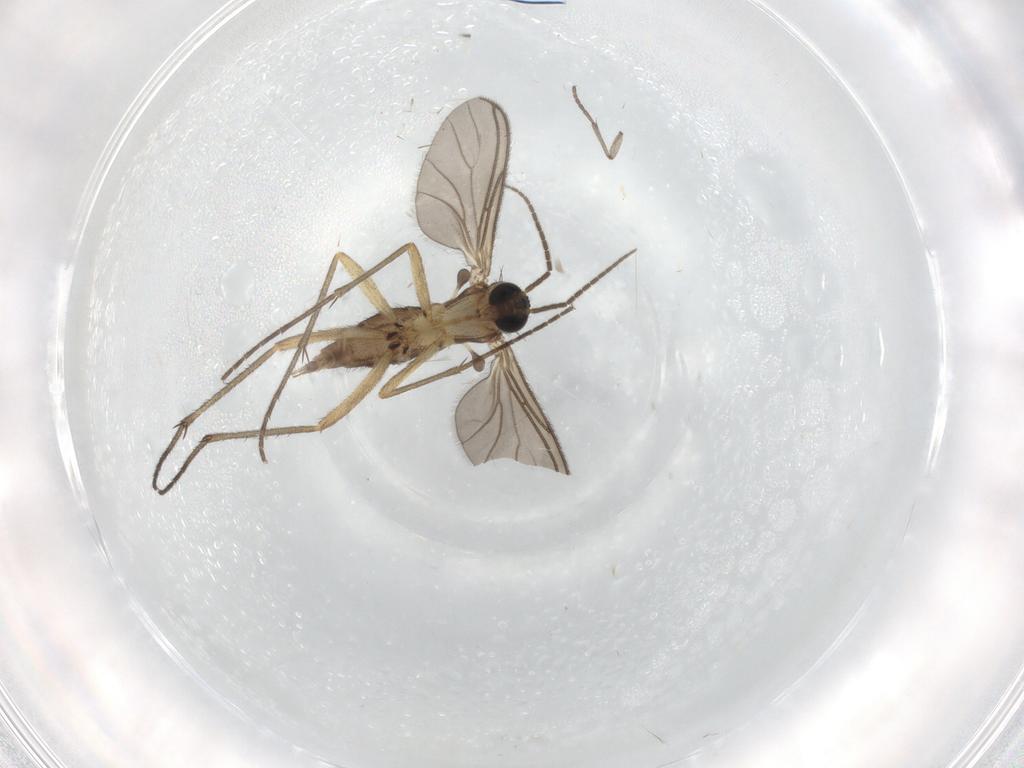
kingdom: Animalia
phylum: Arthropoda
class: Insecta
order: Diptera
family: Sciaridae
